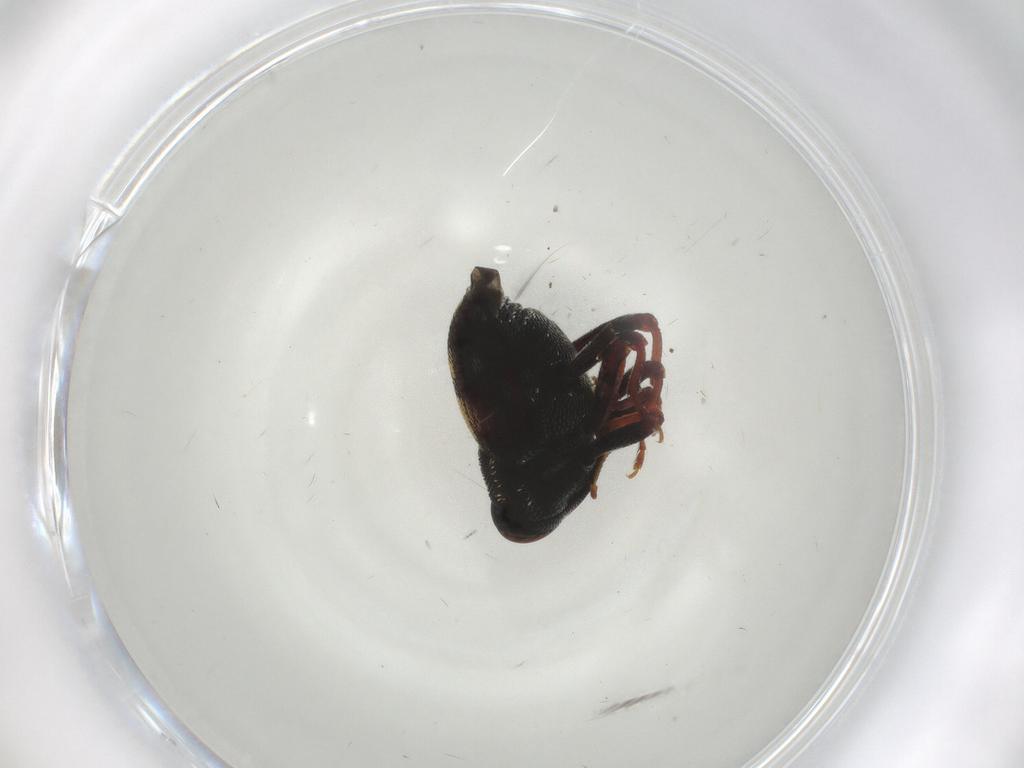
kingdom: Animalia
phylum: Arthropoda
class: Insecta
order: Coleoptera
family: Curculionidae
